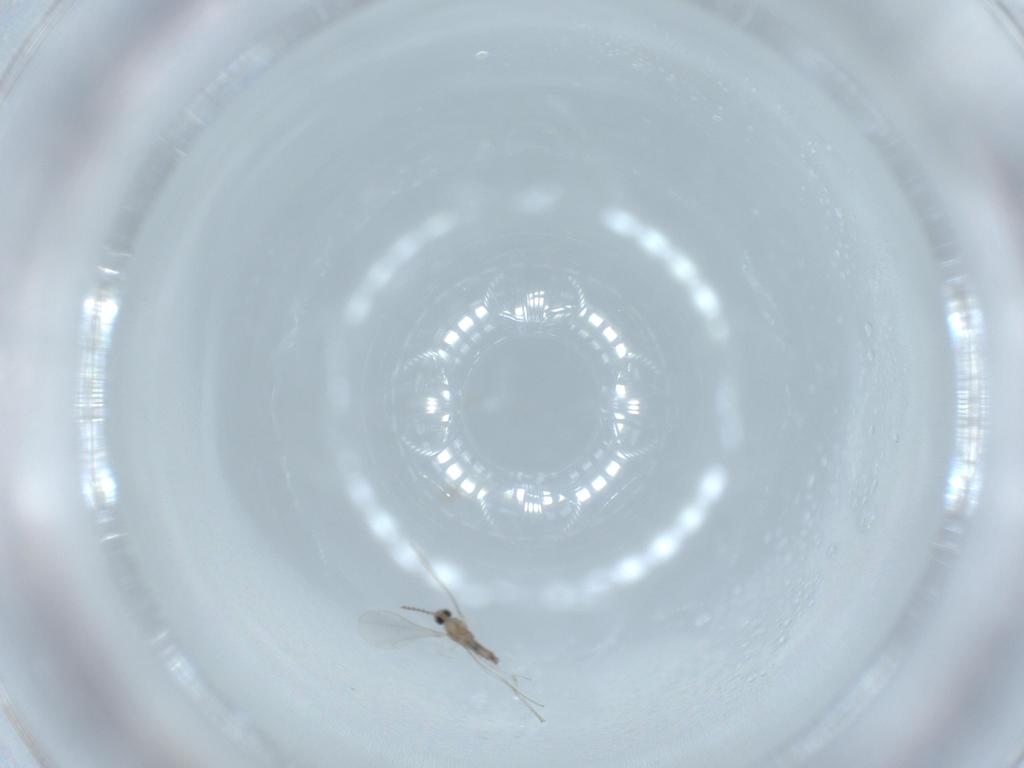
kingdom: Animalia
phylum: Arthropoda
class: Insecta
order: Diptera
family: Cecidomyiidae
